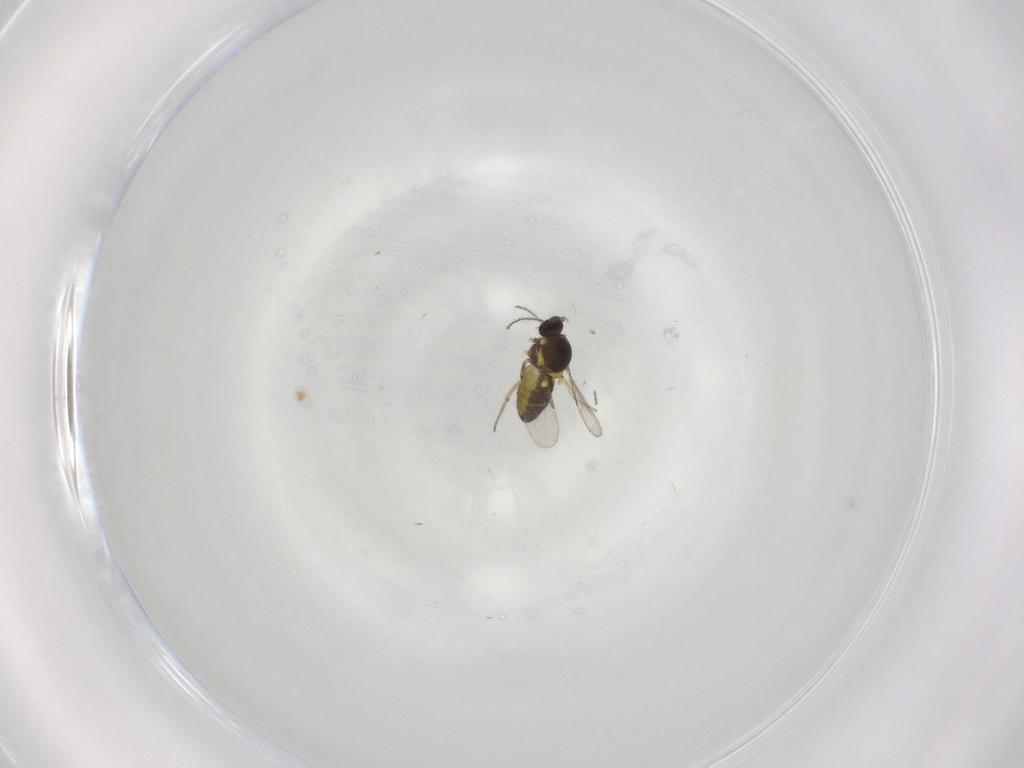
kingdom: Animalia
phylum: Arthropoda
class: Insecta
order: Diptera
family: Ceratopogonidae
